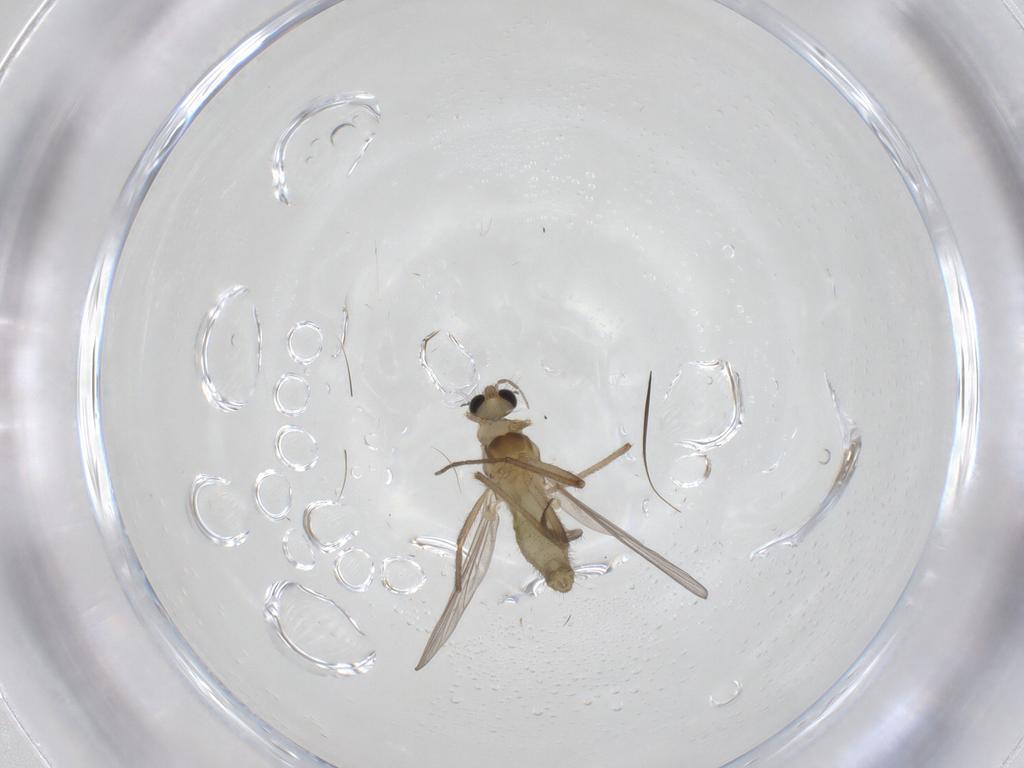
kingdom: Animalia
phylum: Arthropoda
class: Insecta
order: Diptera
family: Chironomidae
